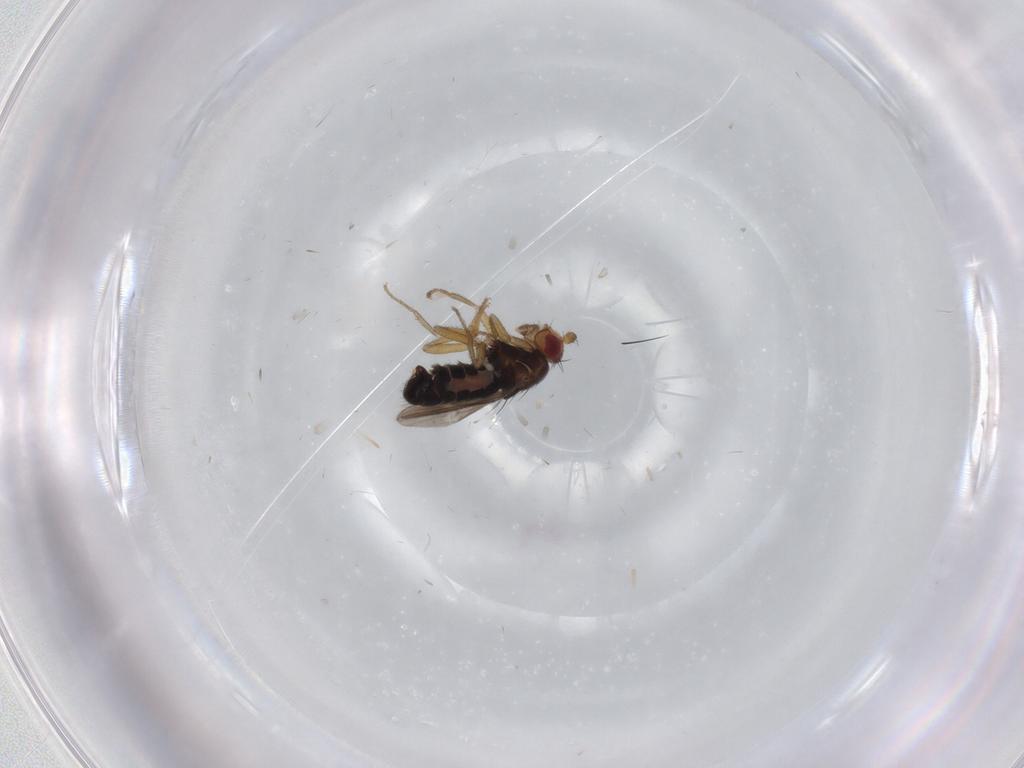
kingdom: Animalia
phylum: Arthropoda
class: Insecta
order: Diptera
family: Sphaeroceridae
